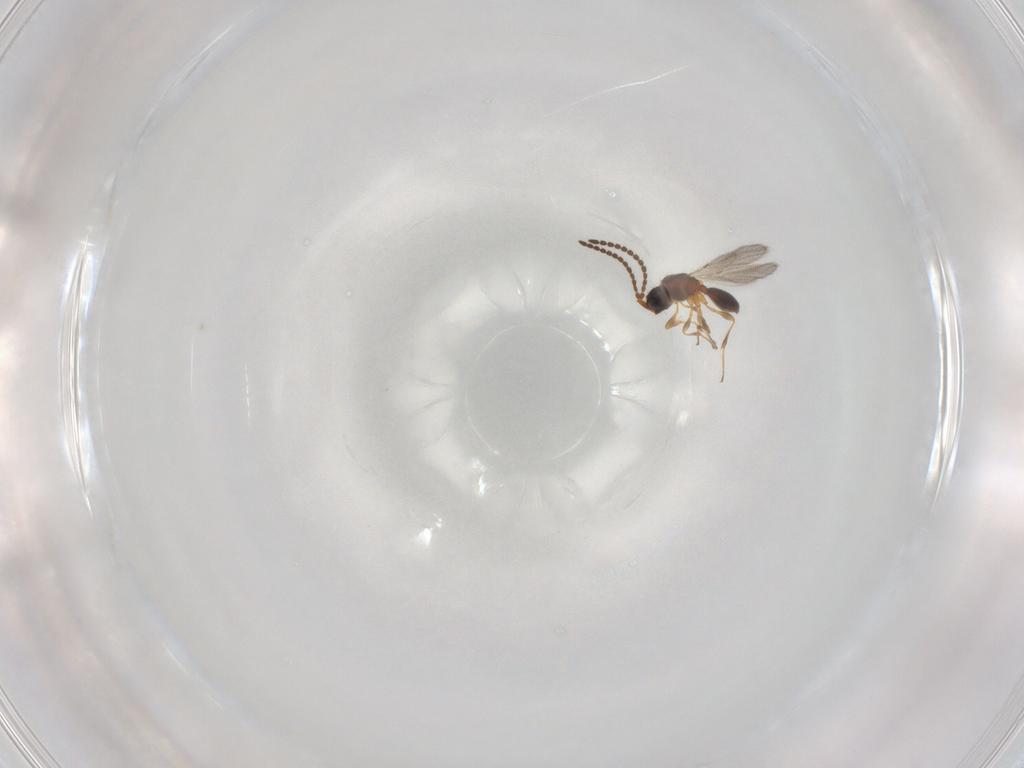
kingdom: Animalia
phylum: Arthropoda
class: Insecta
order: Hymenoptera
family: Diapriidae
